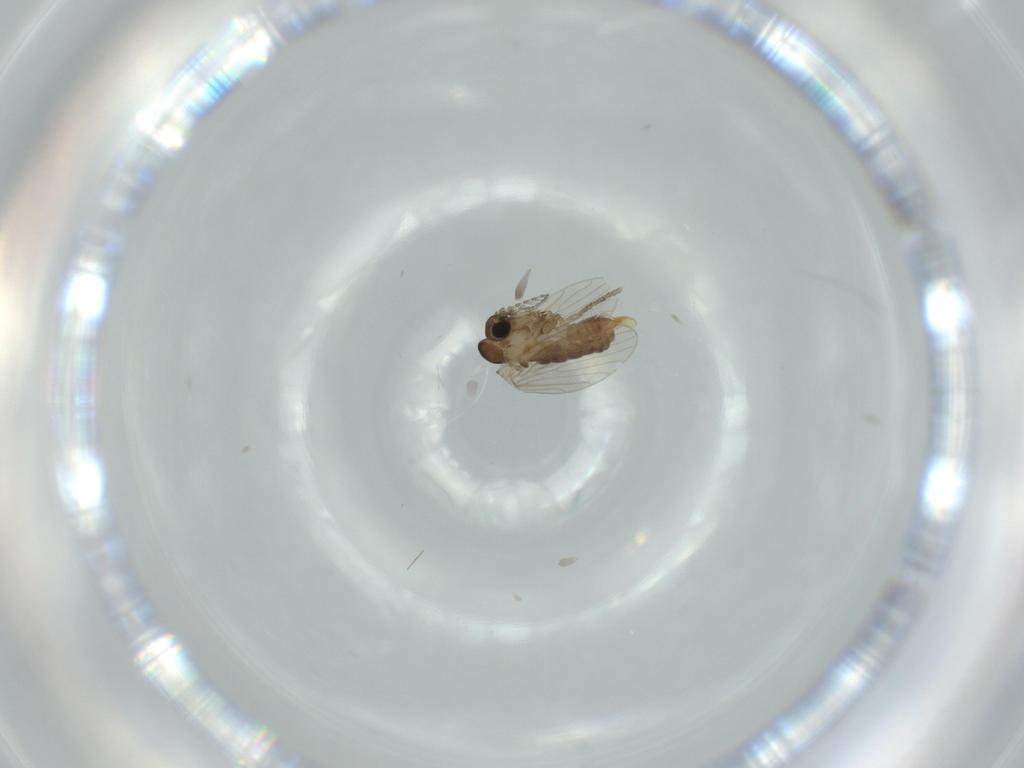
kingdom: Animalia
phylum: Arthropoda
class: Insecta
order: Diptera
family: Psychodidae
